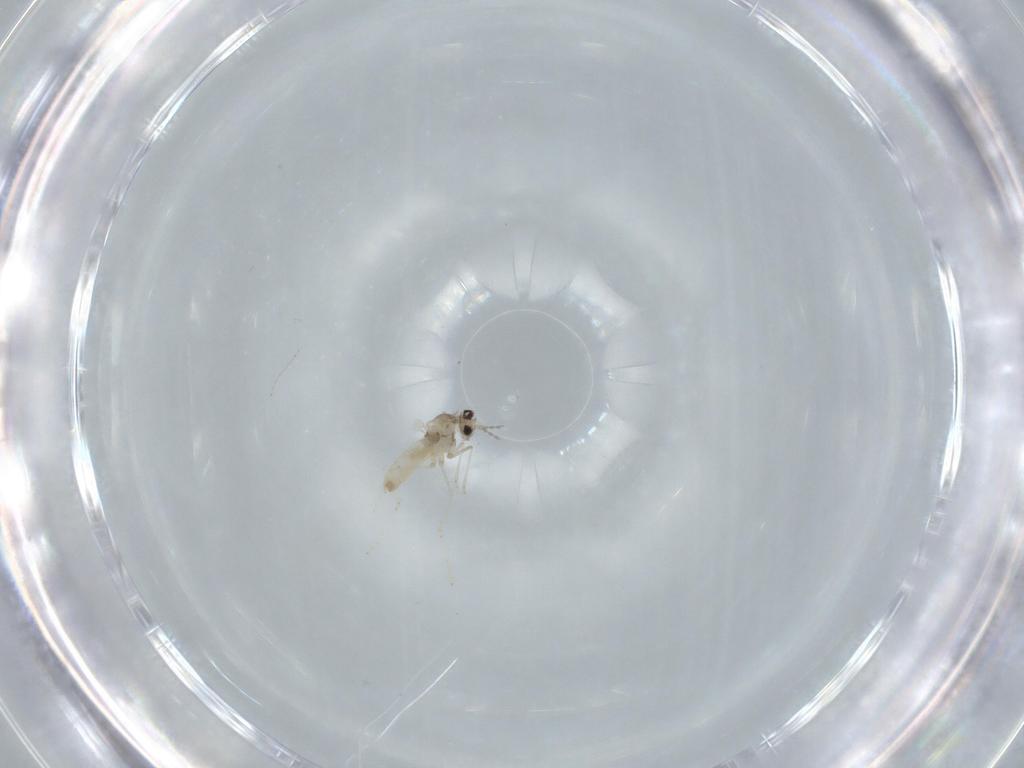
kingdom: Animalia
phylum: Arthropoda
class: Insecta
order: Diptera
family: Cecidomyiidae
